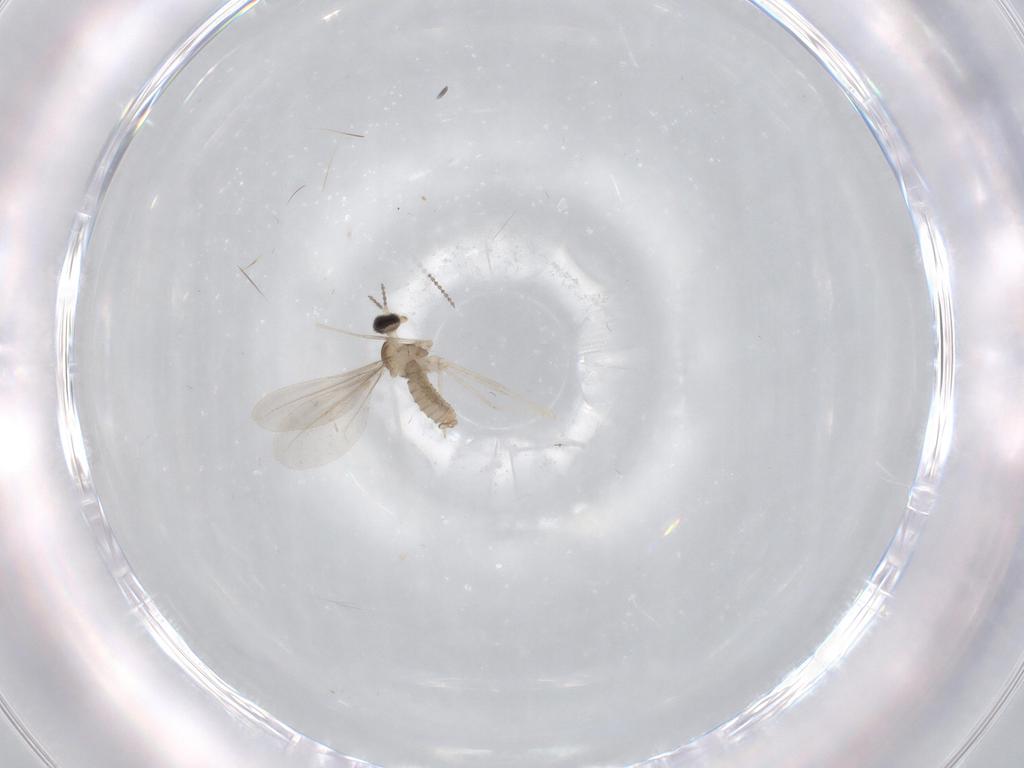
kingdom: Animalia
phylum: Arthropoda
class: Insecta
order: Diptera
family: Cecidomyiidae
